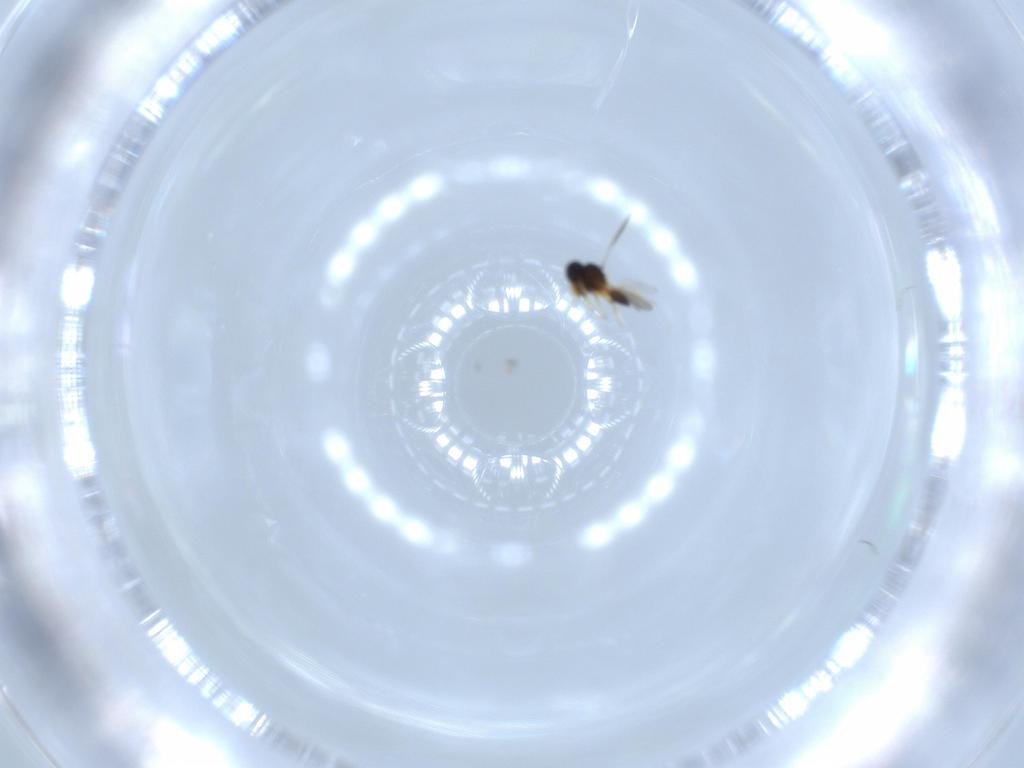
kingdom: Animalia
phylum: Arthropoda
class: Insecta
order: Hymenoptera
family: Platygastridae
